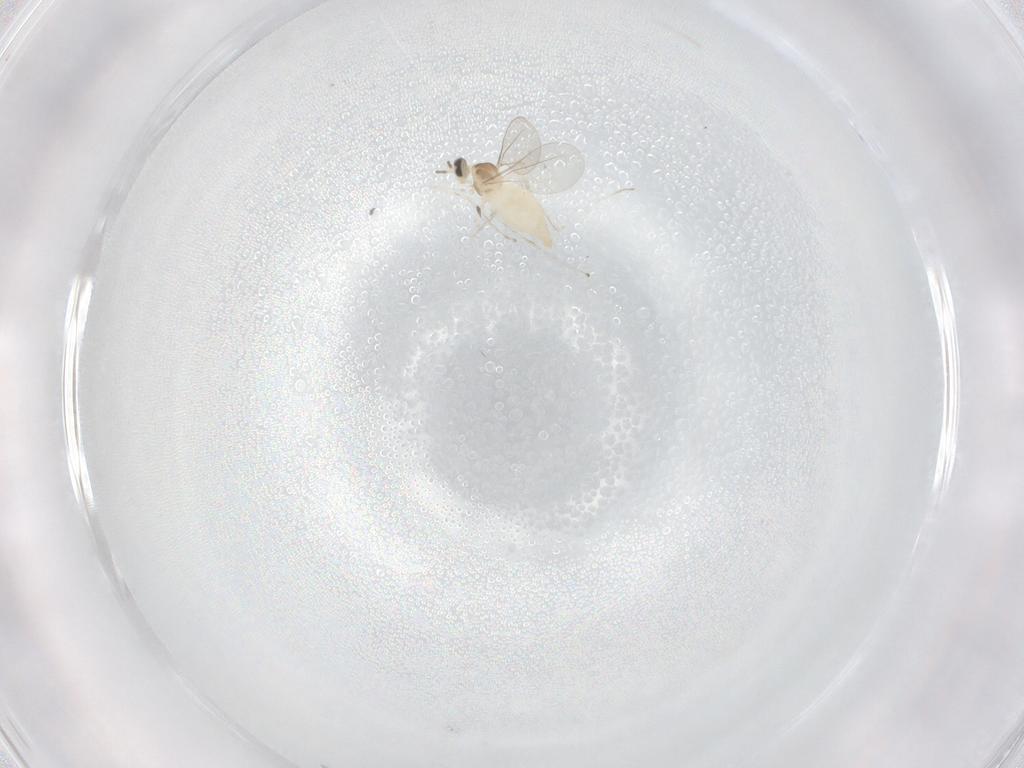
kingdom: Animalia
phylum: Arthropoda
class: Insecta
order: Diptera
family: Cecidomyiidae
